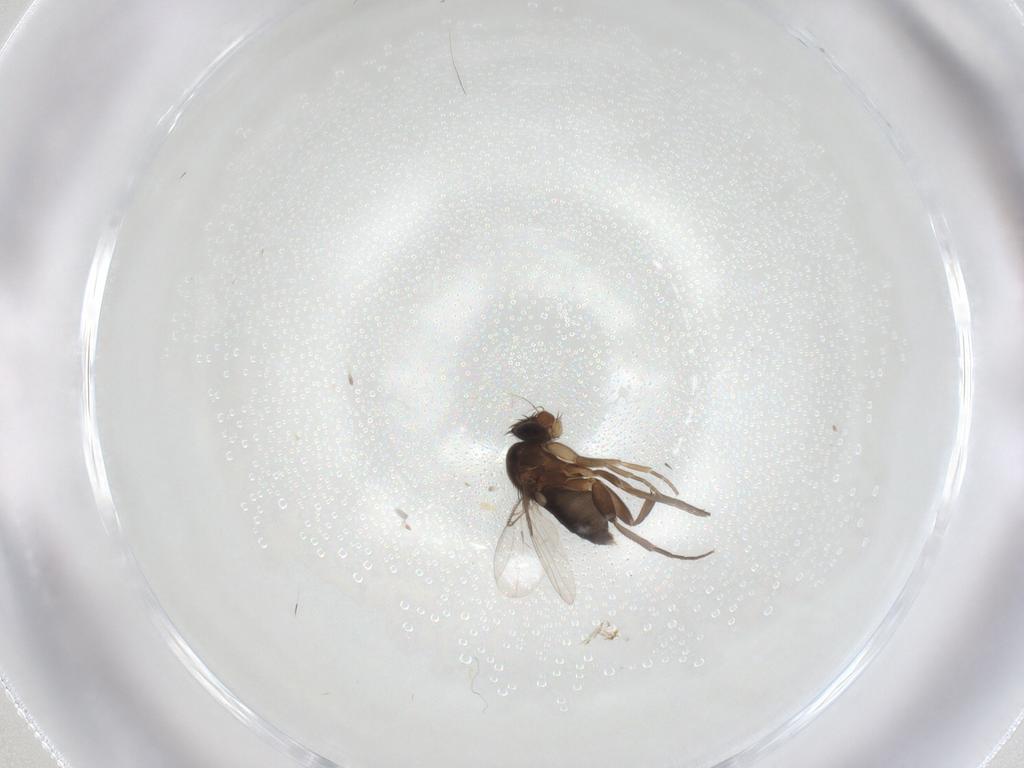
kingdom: Animalia
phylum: Arthropoda
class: Insecta
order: Diptera
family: Phoridae
